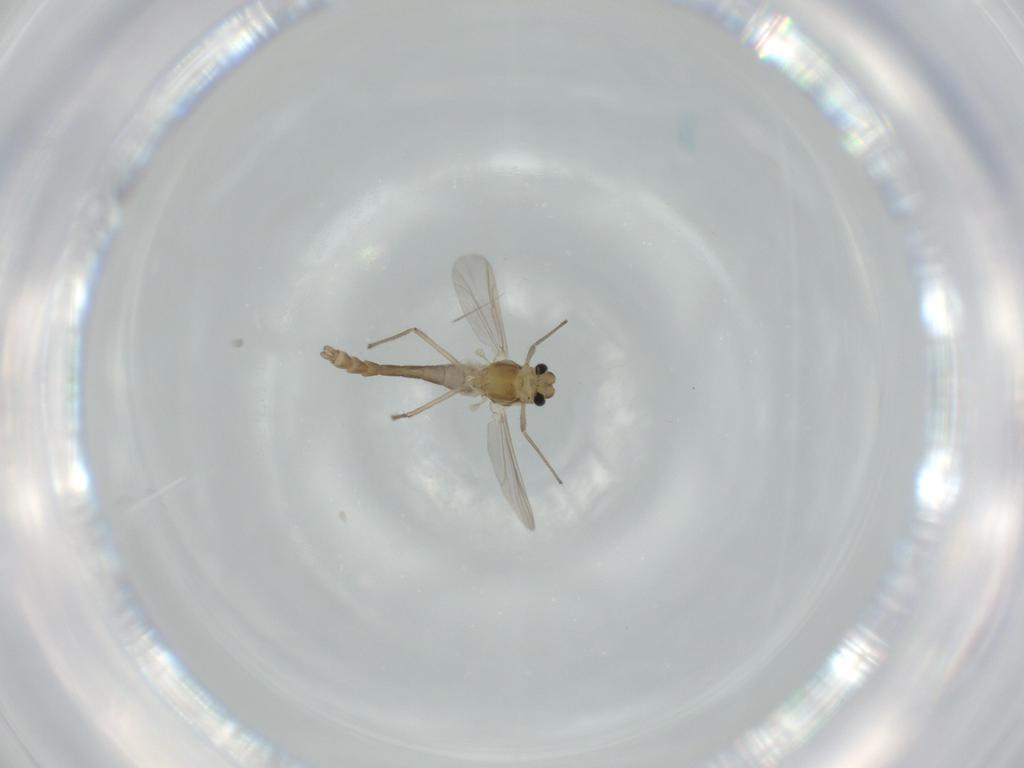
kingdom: Animalia
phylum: Arthropoda
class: Insecta
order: Diptera
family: Chironomidae
